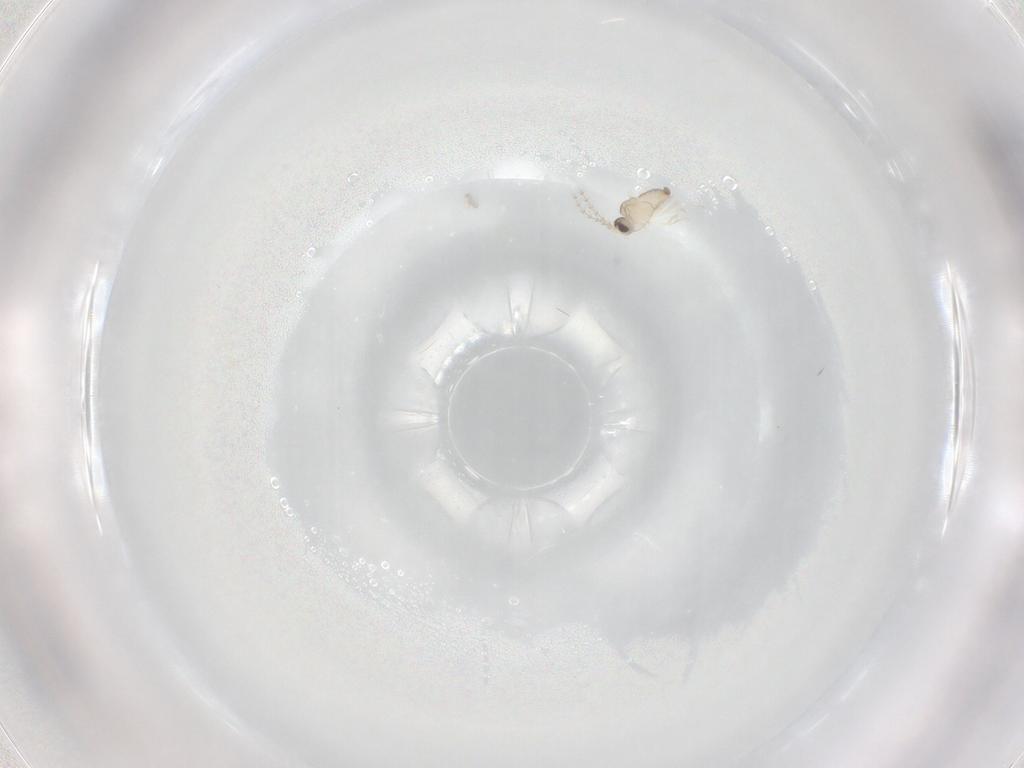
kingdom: Animalia
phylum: Arthropoda
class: Insecta
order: Diptera
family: Cecidomyiidae
